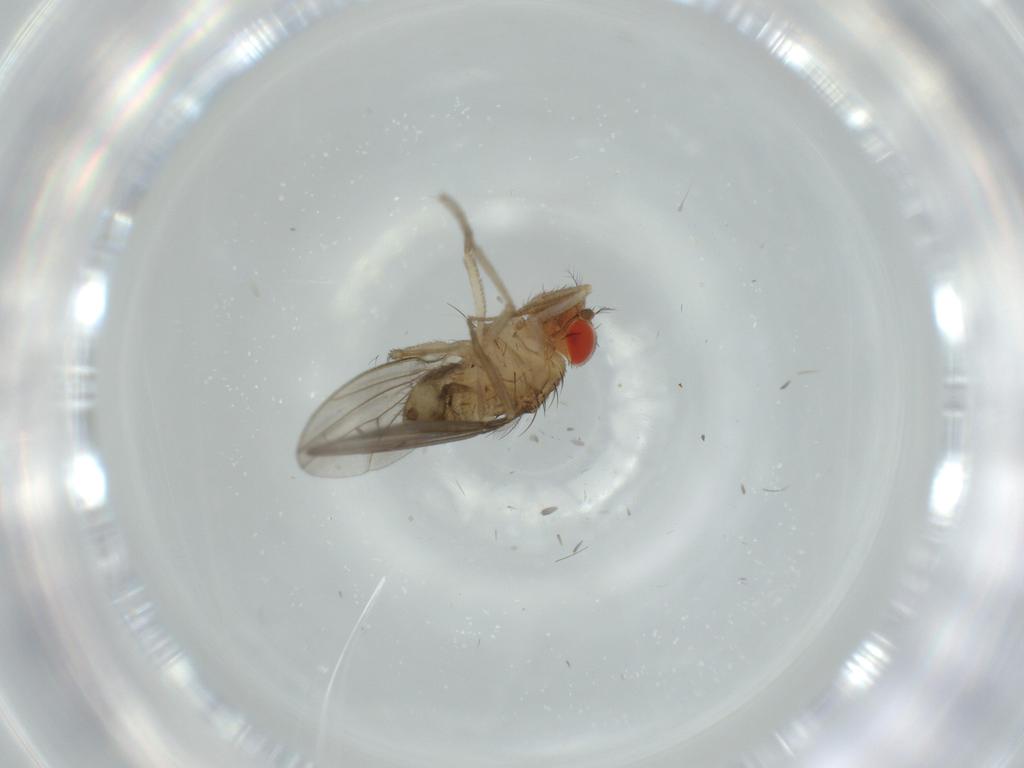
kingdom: Animalia
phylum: Arthropoda
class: Insecta
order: Diptera
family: Drosophilidae
